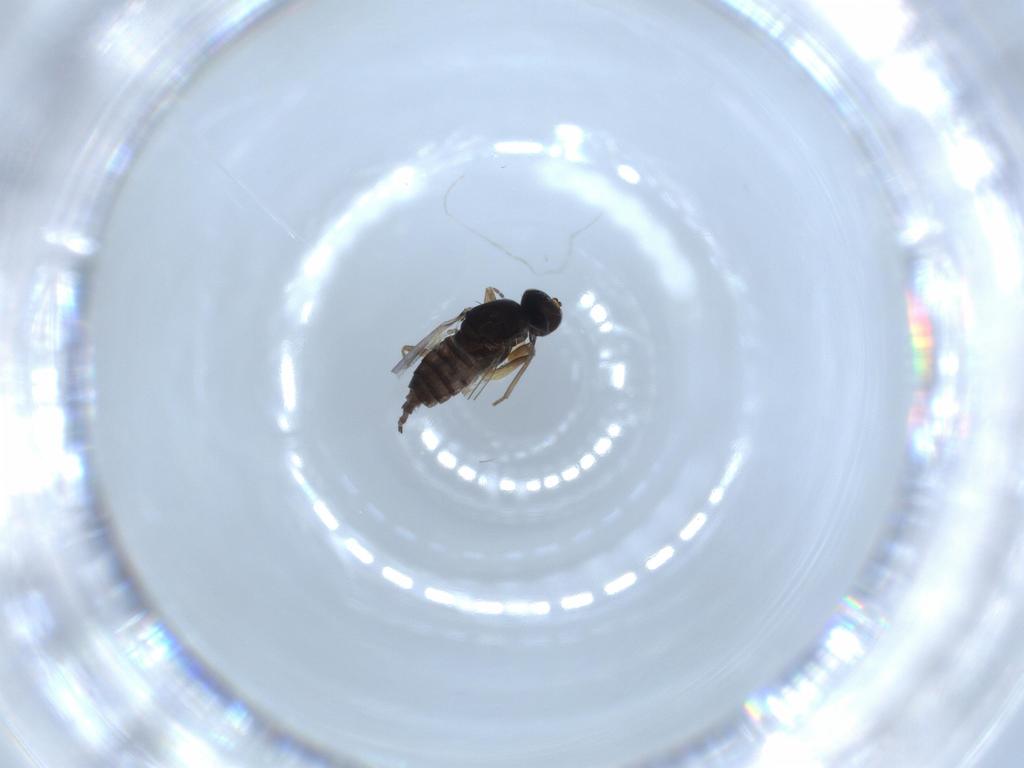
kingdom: Animalia
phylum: Arthropoda
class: Insecta
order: Diptera
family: Hybotidae
